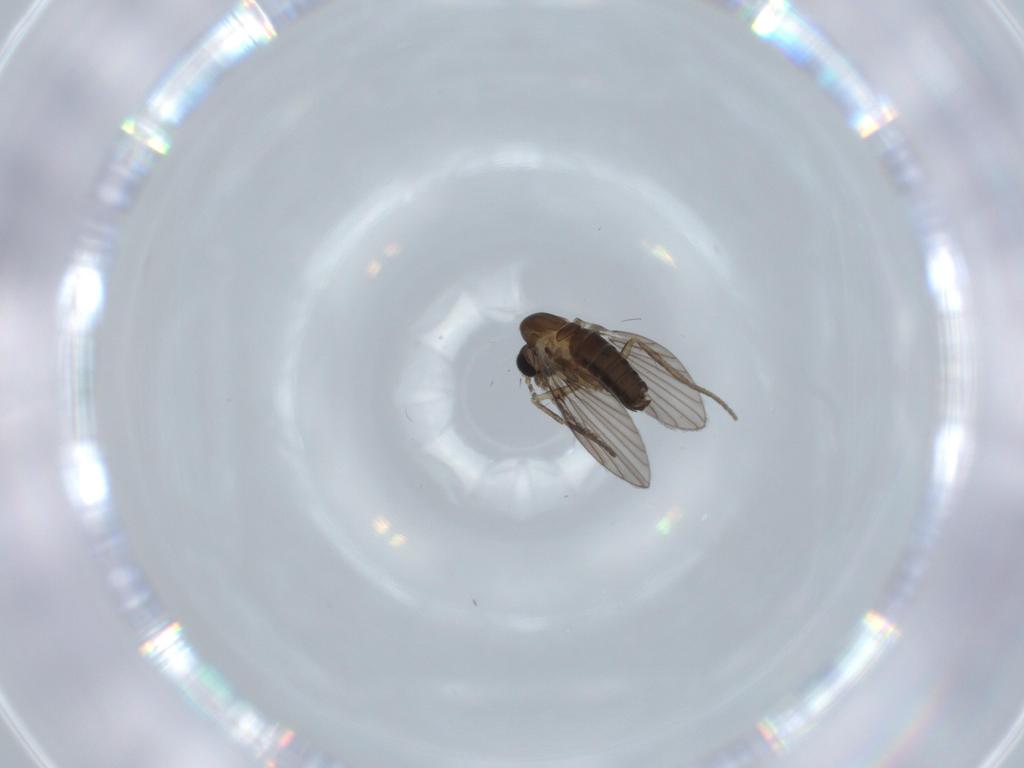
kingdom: Animalia
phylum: Arthropoda
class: Insecta
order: Diptera
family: Psychodidae
